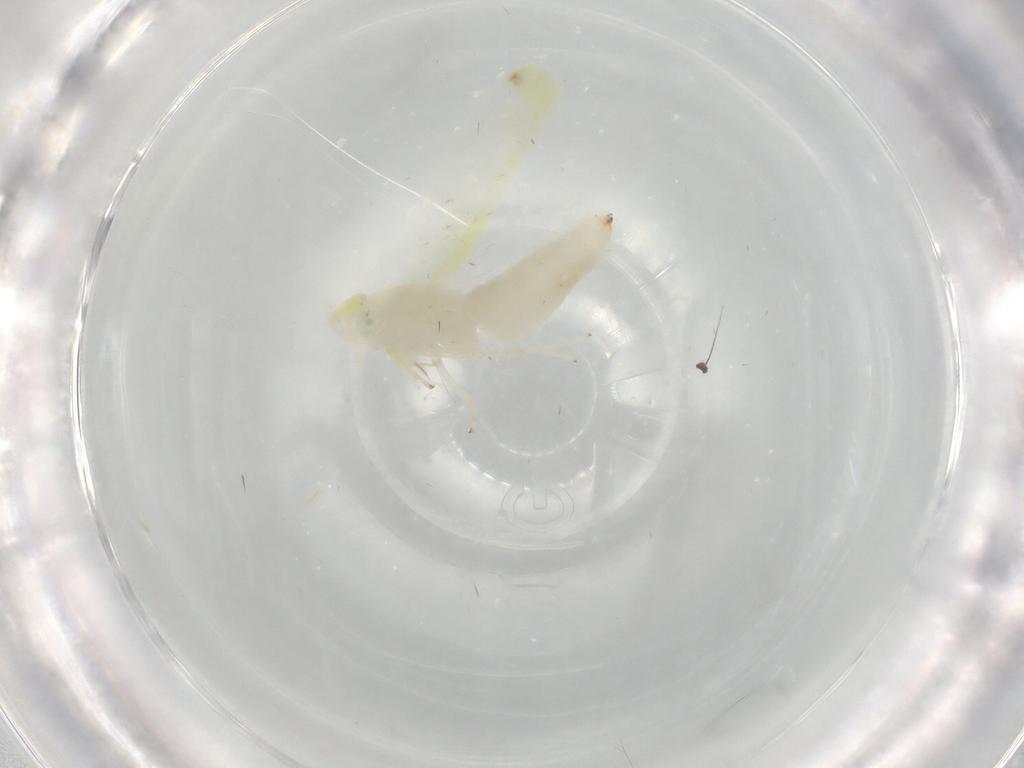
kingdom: Animalia
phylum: Arthropoda
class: Insecta
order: Hemiptera
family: Cicadellidae
